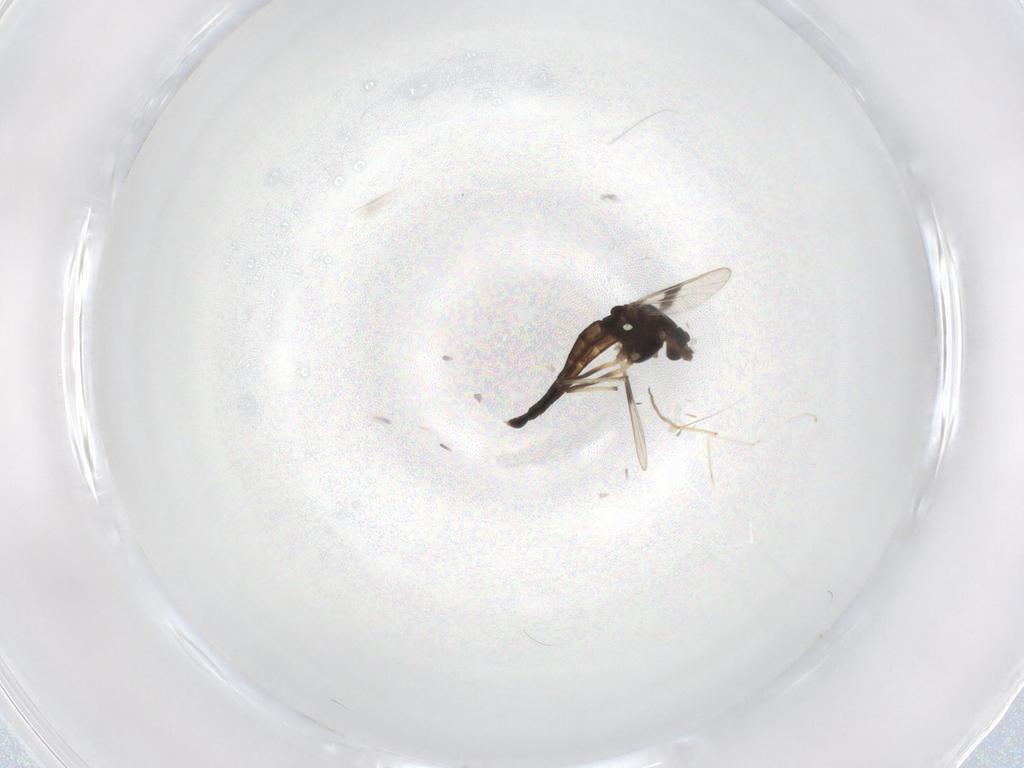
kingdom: Animalia
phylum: Arthropoda
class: Insecta
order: Diptera
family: Chironomidae
